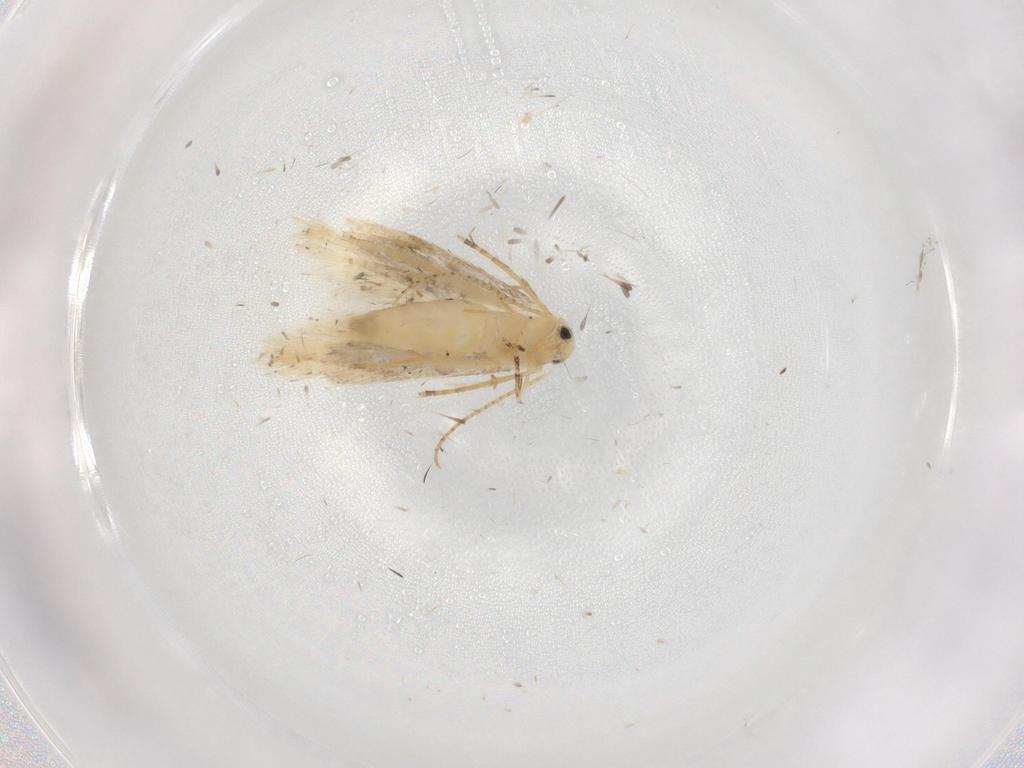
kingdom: Animalia
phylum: Arthropoda
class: Insecta
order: Lepidoptera
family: Bucculatricidae
